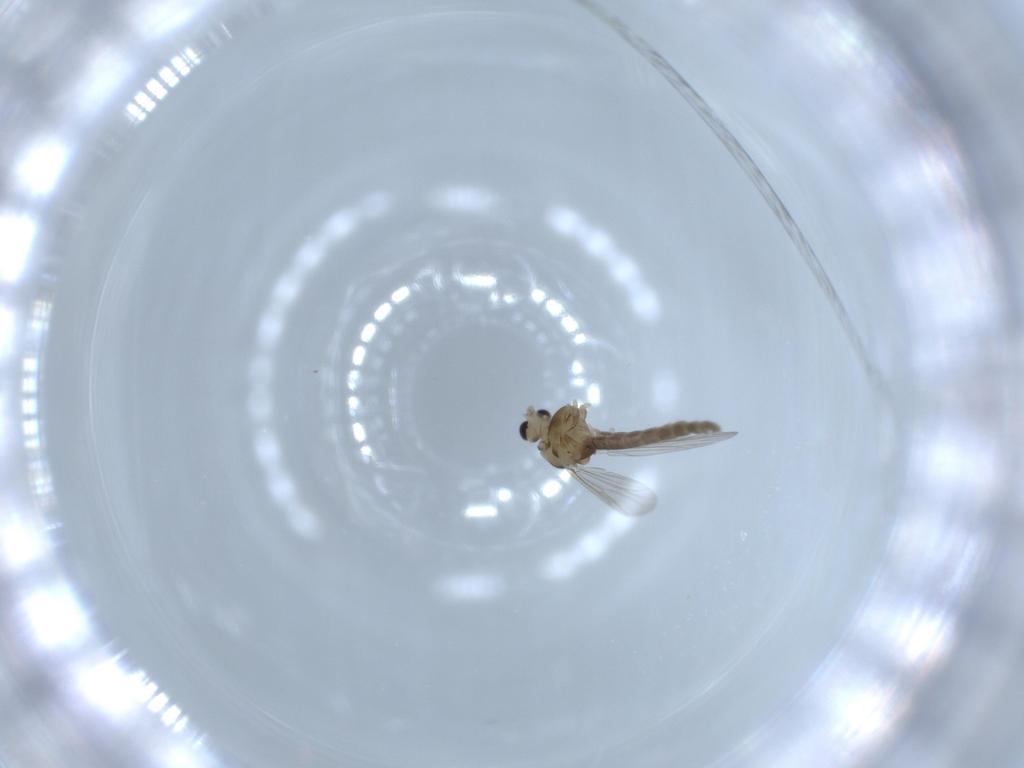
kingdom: Animalia
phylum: Arthropoda
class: Insecta
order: Diptera
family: Chironomidae
